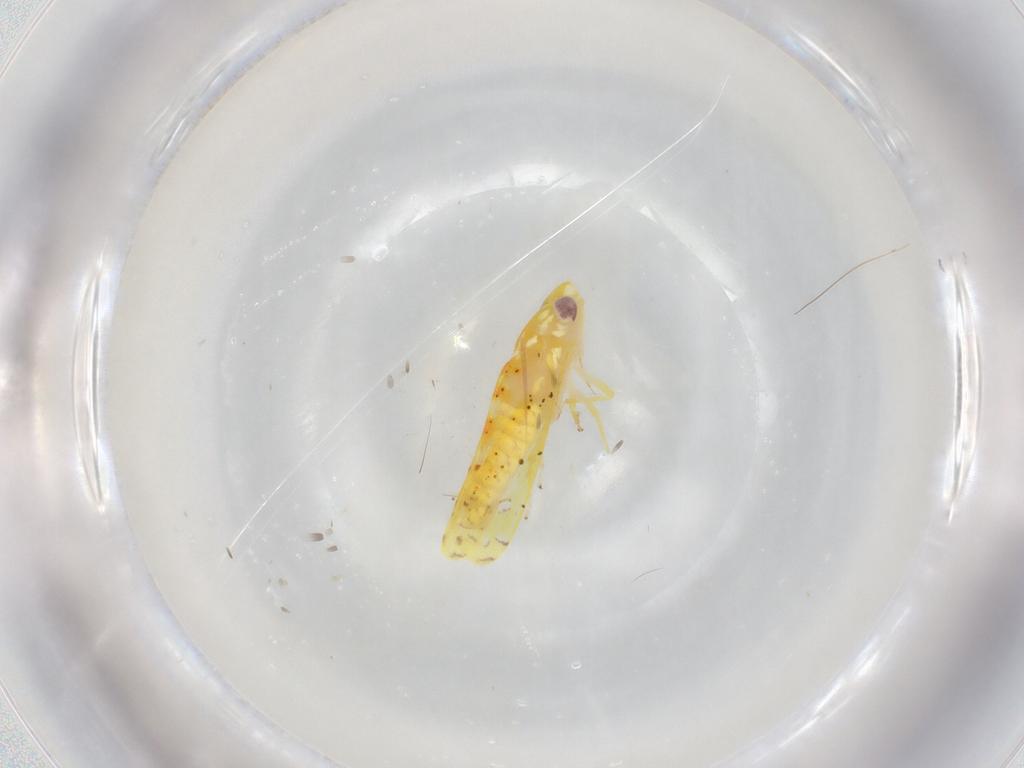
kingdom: Animalia
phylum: Arthropoda
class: Insecta
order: Hemiptera
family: Cicadellidae
